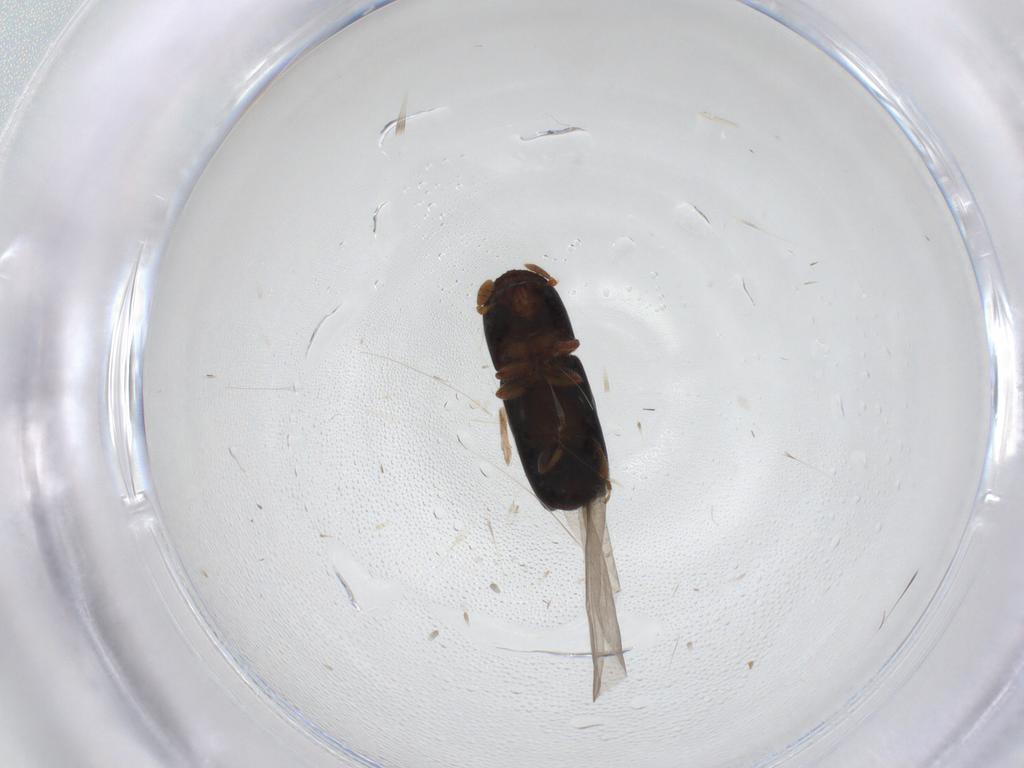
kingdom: Animalia
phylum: Arthropoda
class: Insecta
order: Coleoptera
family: Curculionidae
